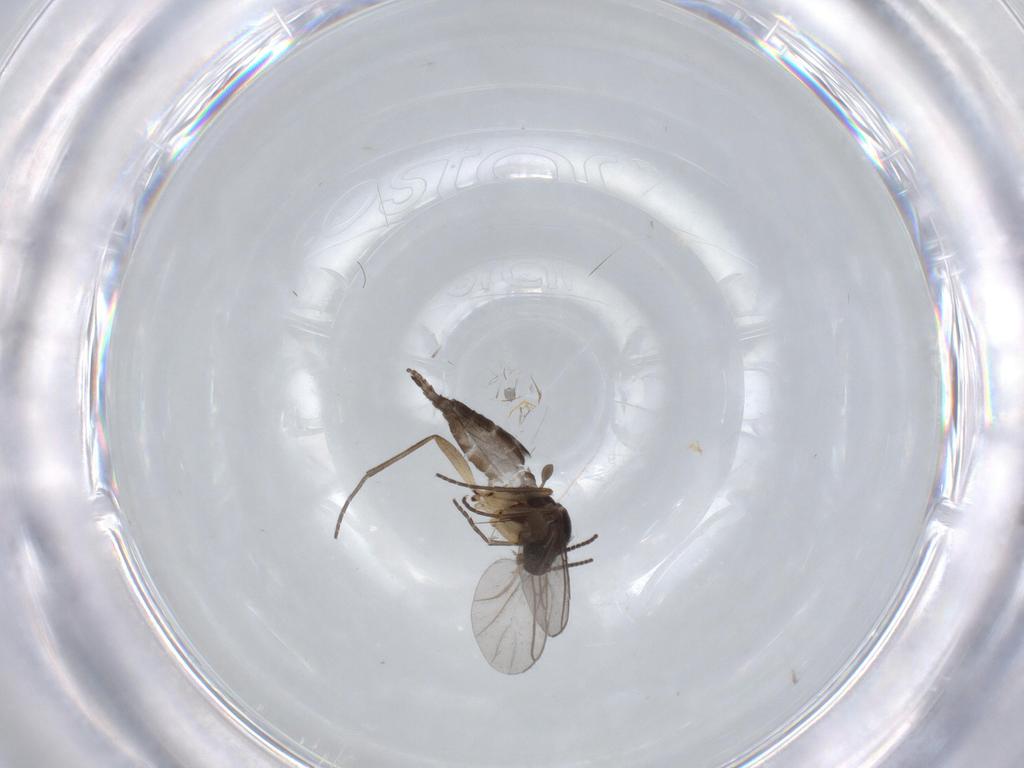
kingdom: Animalia
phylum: Arthropoda
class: Insecta
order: Diptera
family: Sciaridae
